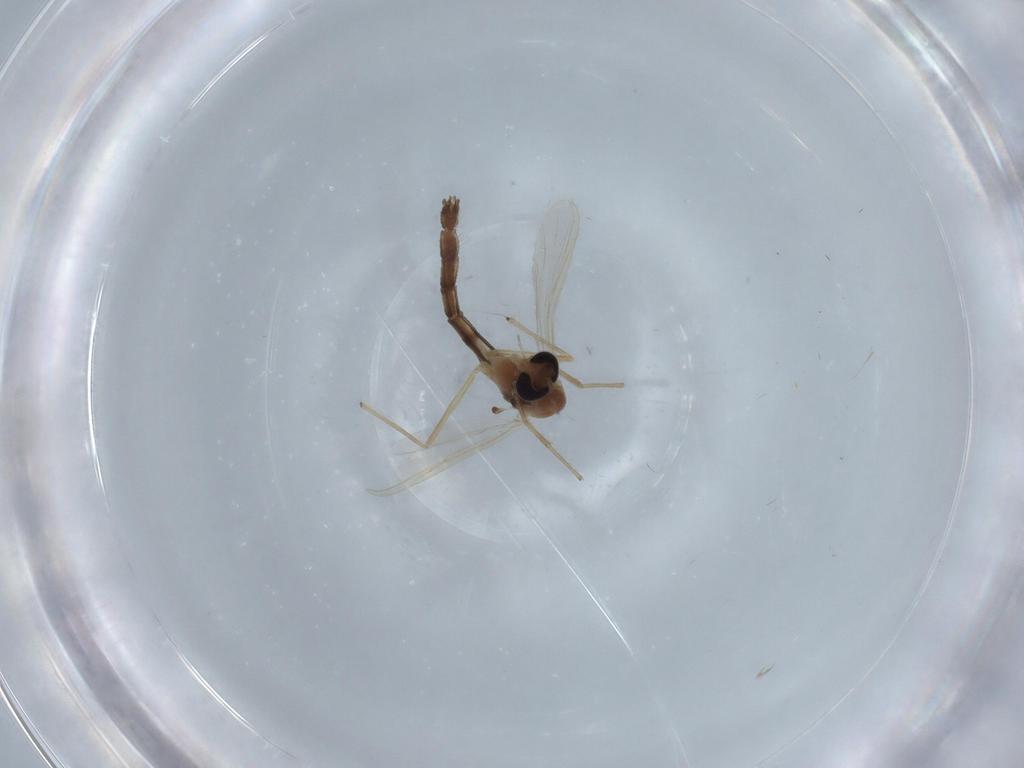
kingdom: Animalia
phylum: Arthropoda
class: Insecta
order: Diptera
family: Phoridae
